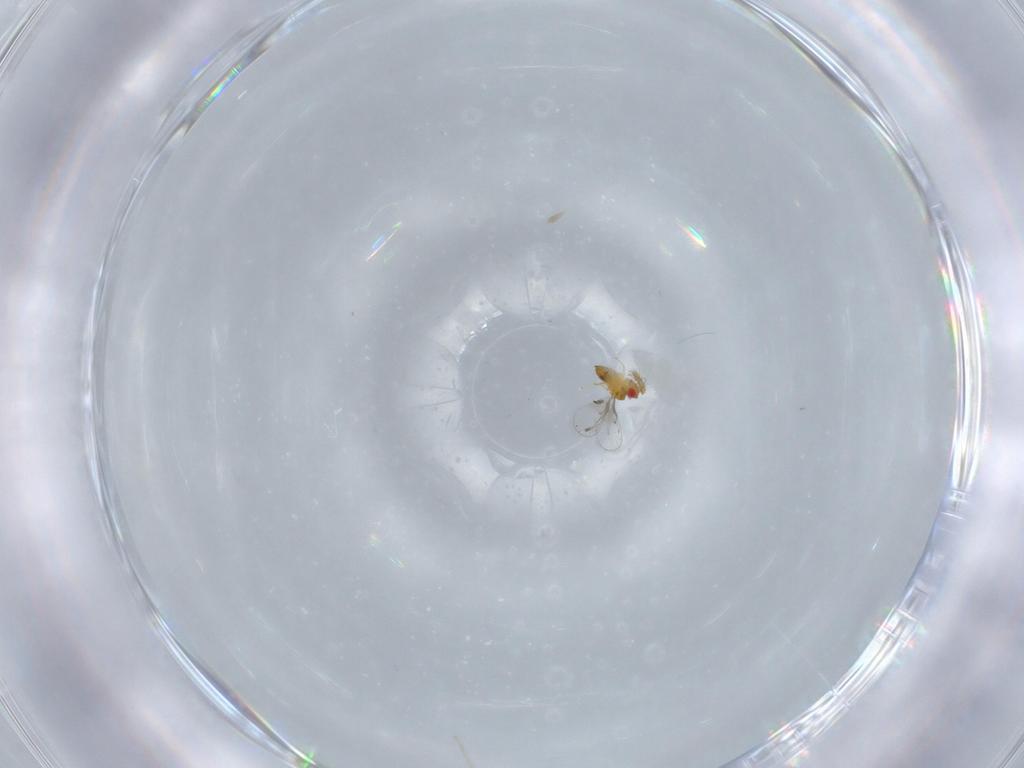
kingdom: Animalia
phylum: Arthropoda
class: Insecta
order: Hymenoptera
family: Trichogrammatidae
